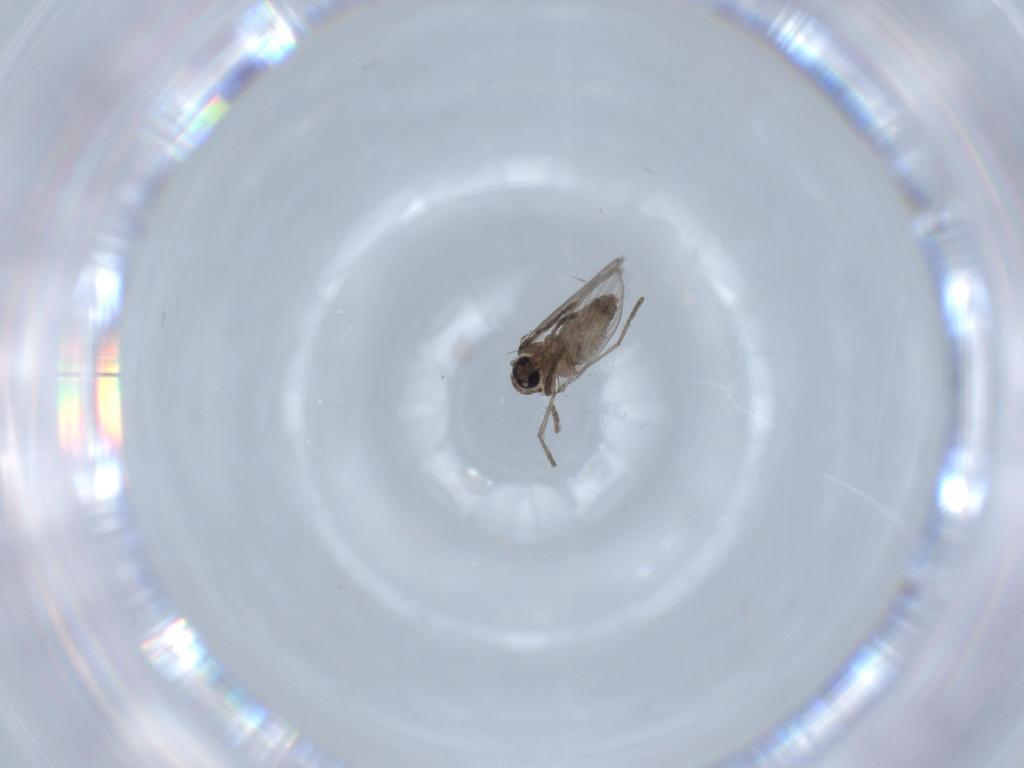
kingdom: Animalia
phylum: Arthropoda
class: Insecta
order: Diptera
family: Psychodidae
